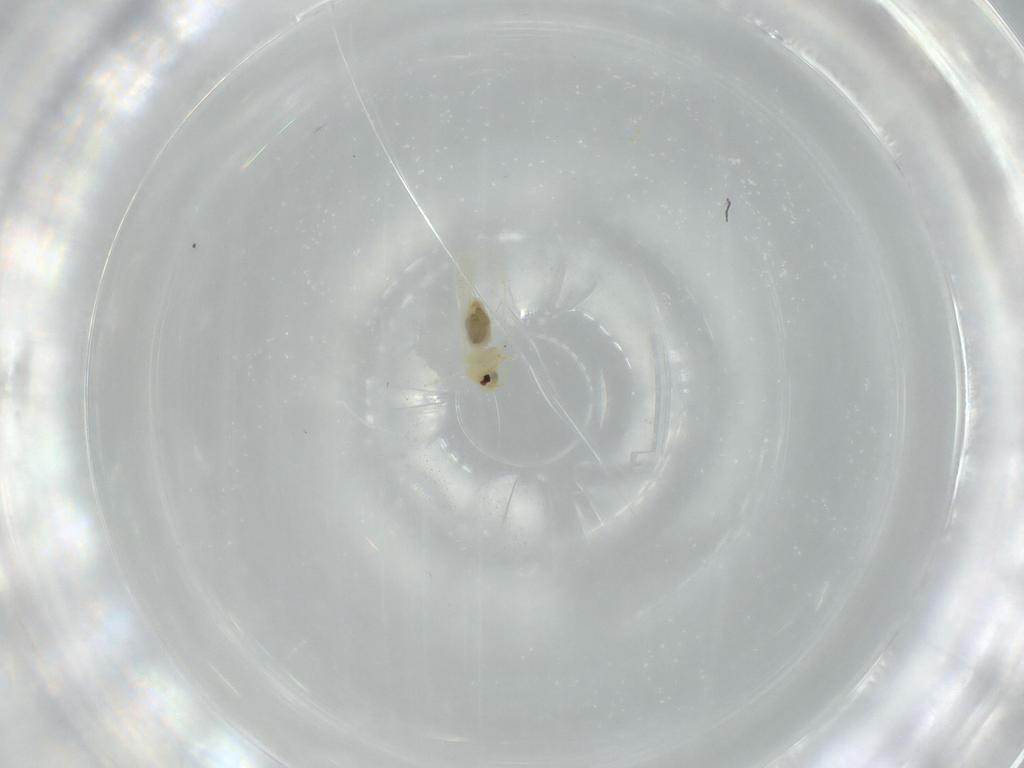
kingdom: Animalia
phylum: Arthropoda
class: Insecta
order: Hemiptera
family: Aleyrodidae
